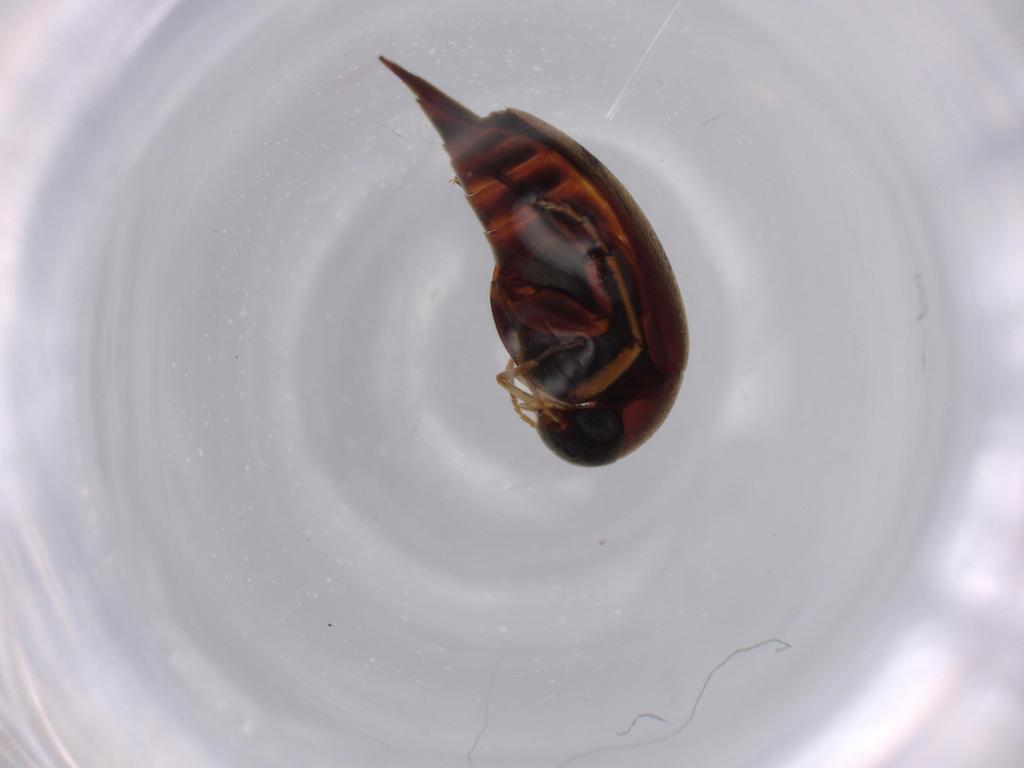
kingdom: Animalia
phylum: Arthropoda
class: Insecta
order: Coleoptera
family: Mordellidae
